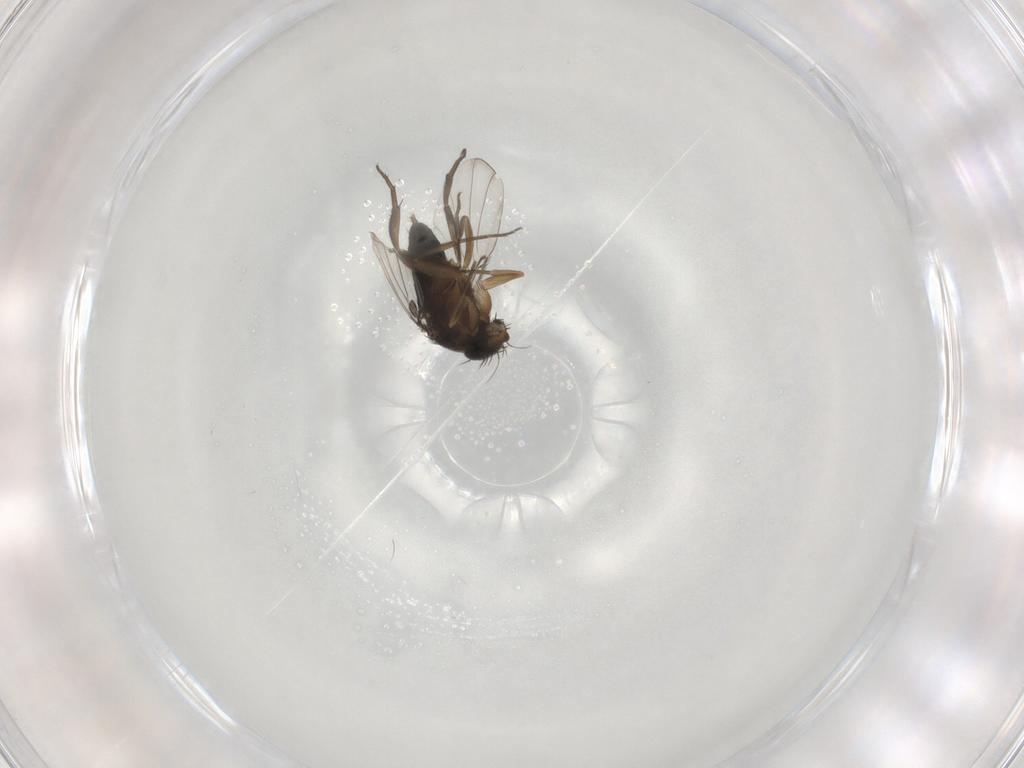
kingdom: Animalia
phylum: Arthropoda
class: Insecta
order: Diptera
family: Phoridae
